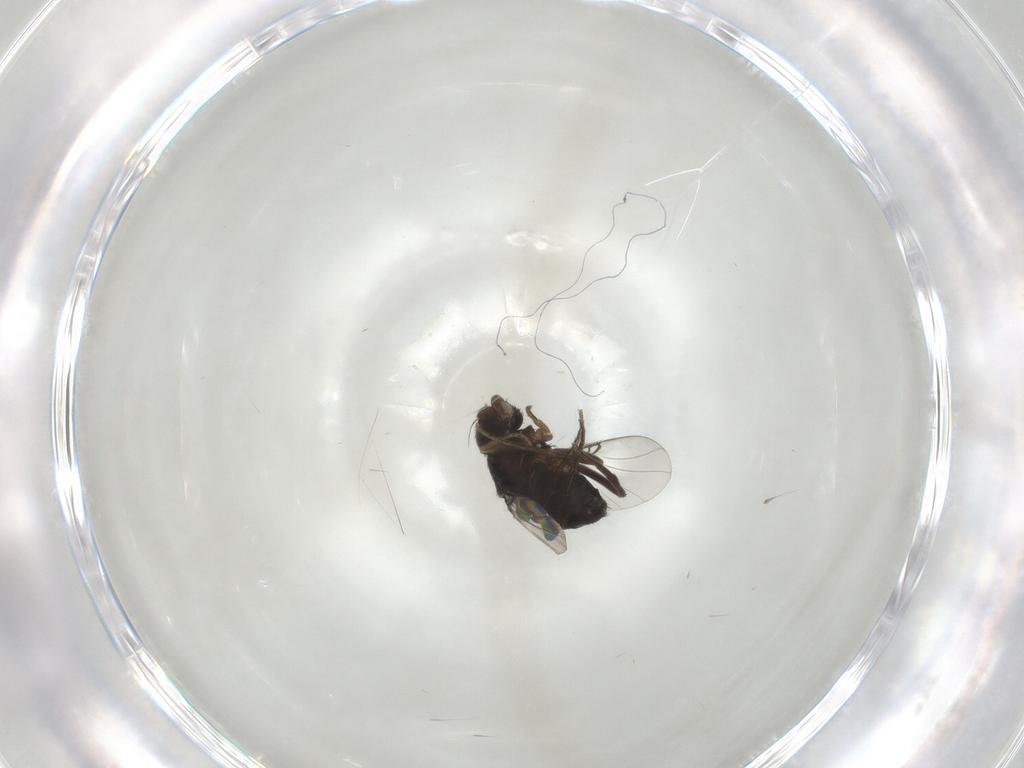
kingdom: Animalia
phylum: Arthropoda
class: Insecta
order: Diptera
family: Phoridae
